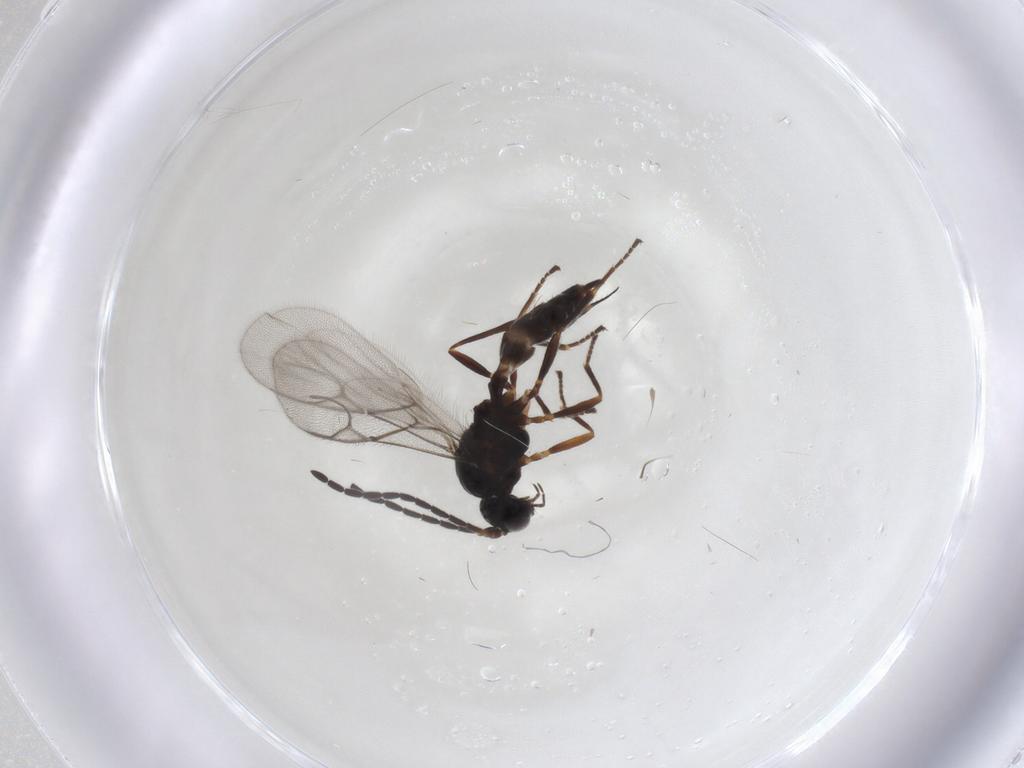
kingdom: Animalia
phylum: Arthropoda
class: Insecta
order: Hymenoptera
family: Braconidae
